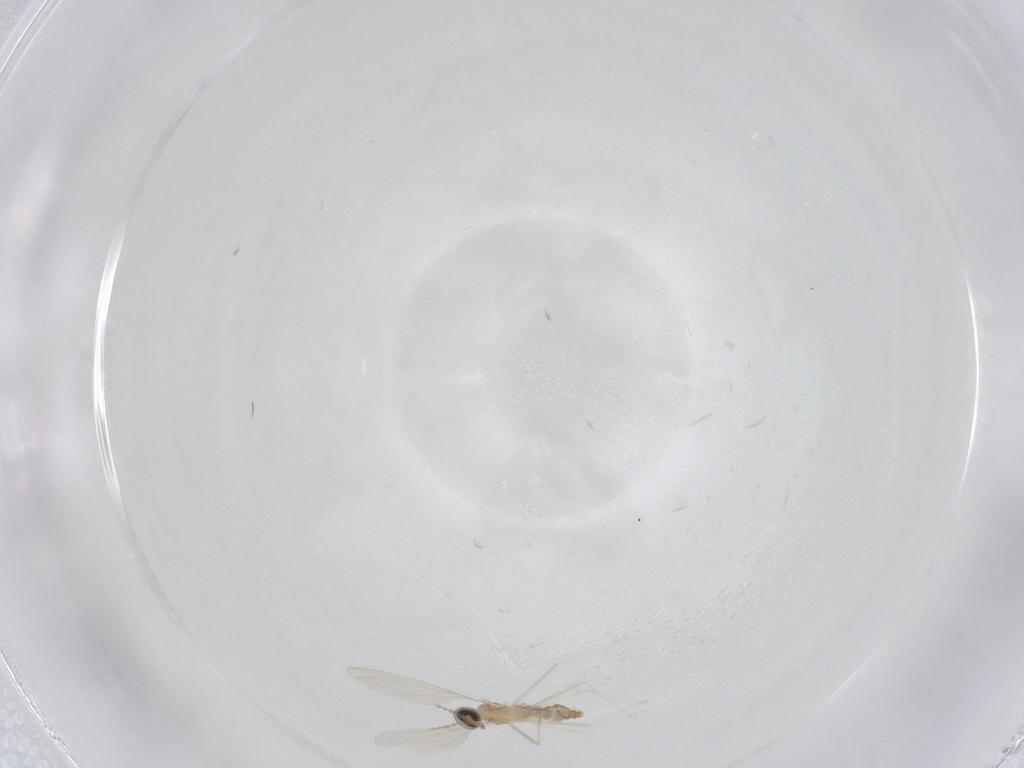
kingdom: Animalia
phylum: Arthropoda
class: Insecta
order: Diptera
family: Cecidomyiidae
